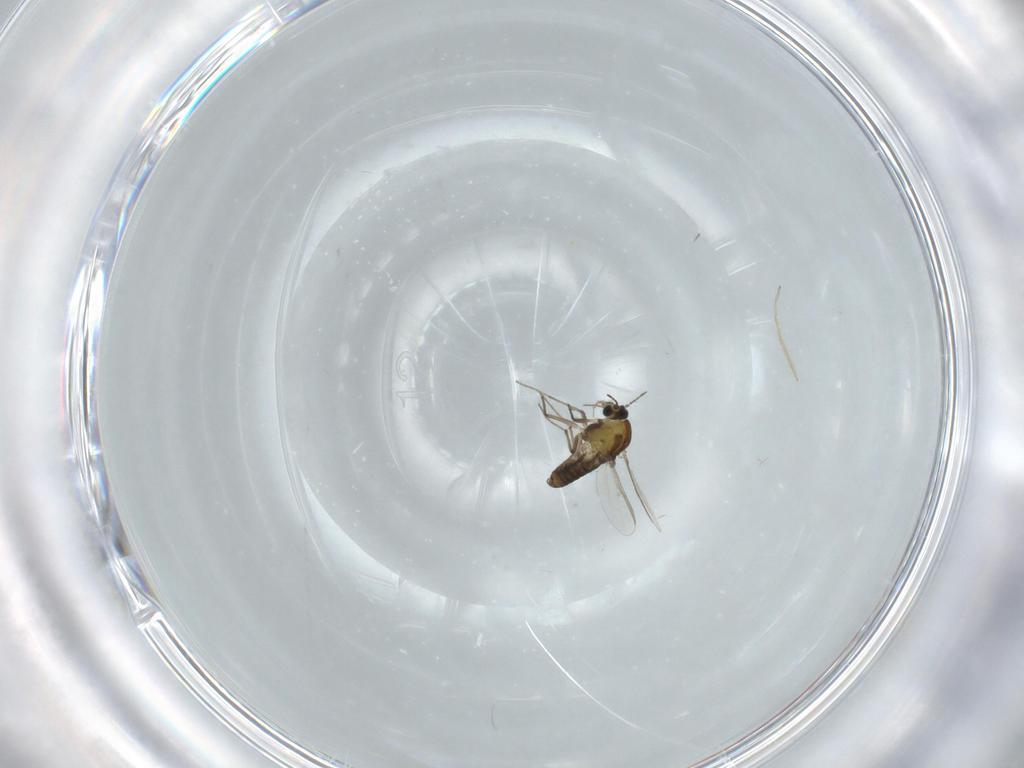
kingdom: Animalia
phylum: Arthropoda
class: Insecta
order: Diptera
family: Chironomidae
